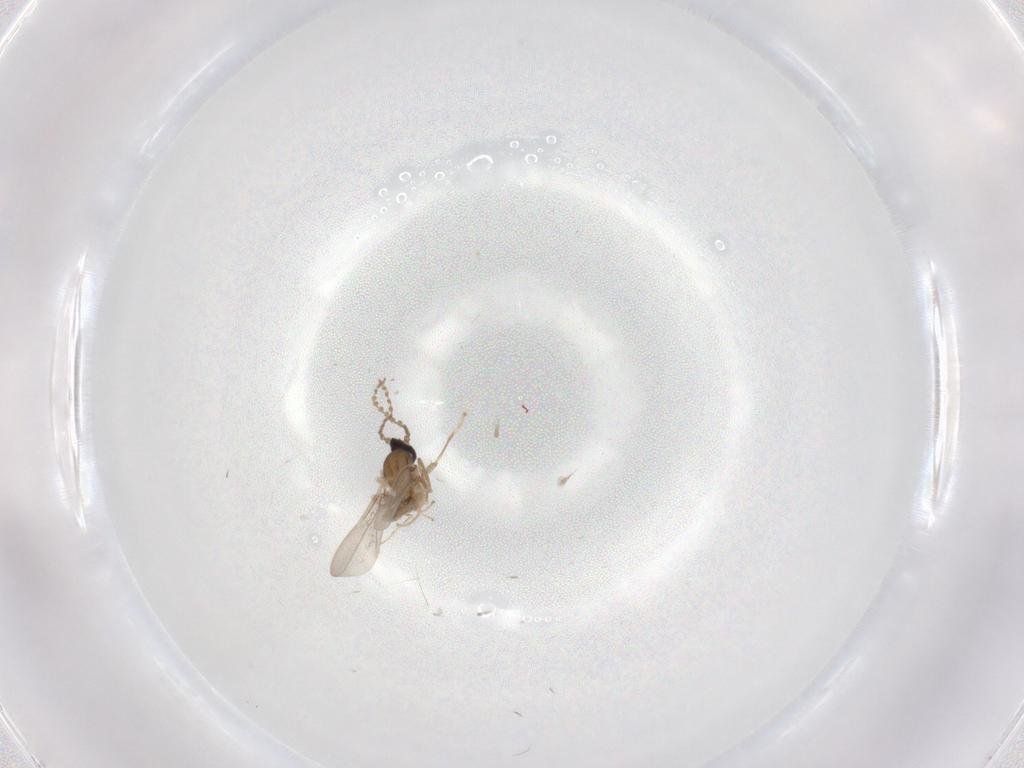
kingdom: Animalia
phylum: Arthropoda
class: Insecta
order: Diptera
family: Cecidomyiidae
